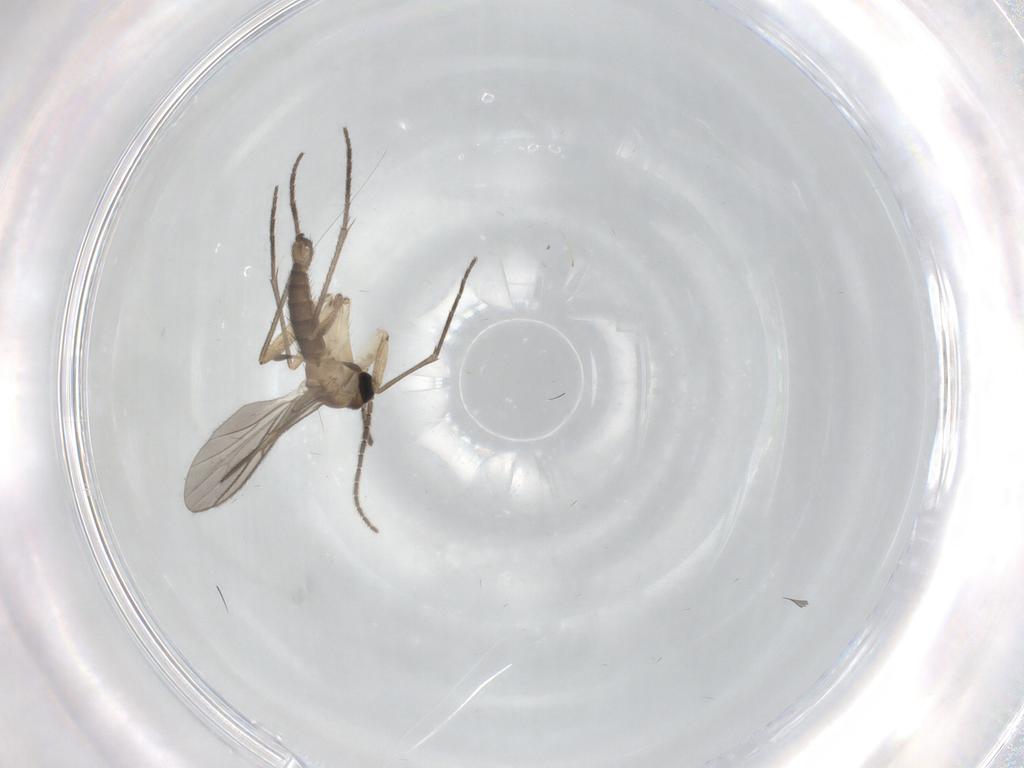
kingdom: Animalia
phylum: Arthropoda
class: Insecta
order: Diptera
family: Sciaridae
